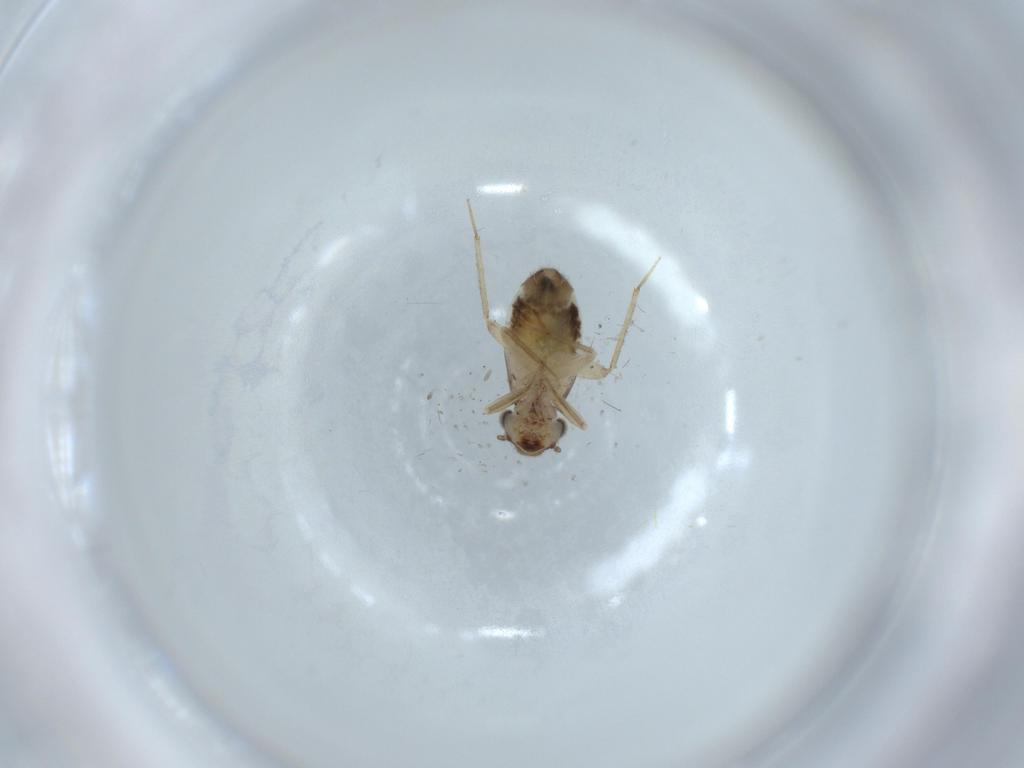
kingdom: Animalia
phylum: Arthropoda
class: Insecta
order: Psocodea
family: Lepidopsocidae
